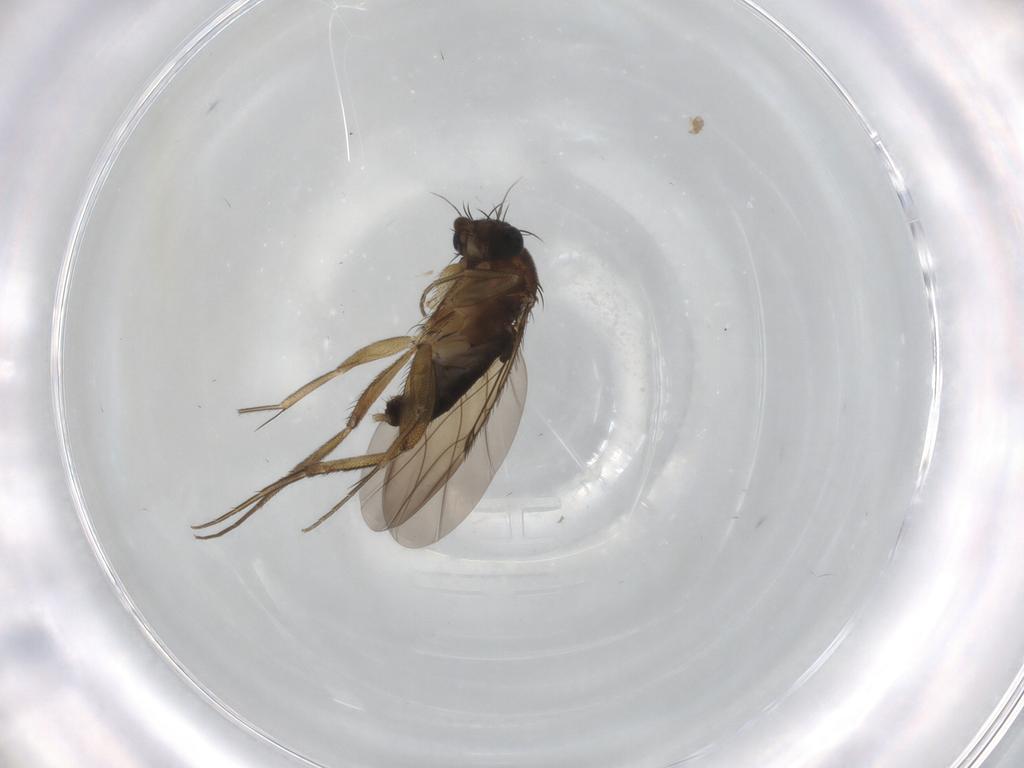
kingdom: Animalia
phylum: Arthropoda
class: Insecta
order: Diptera
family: Phoridae
